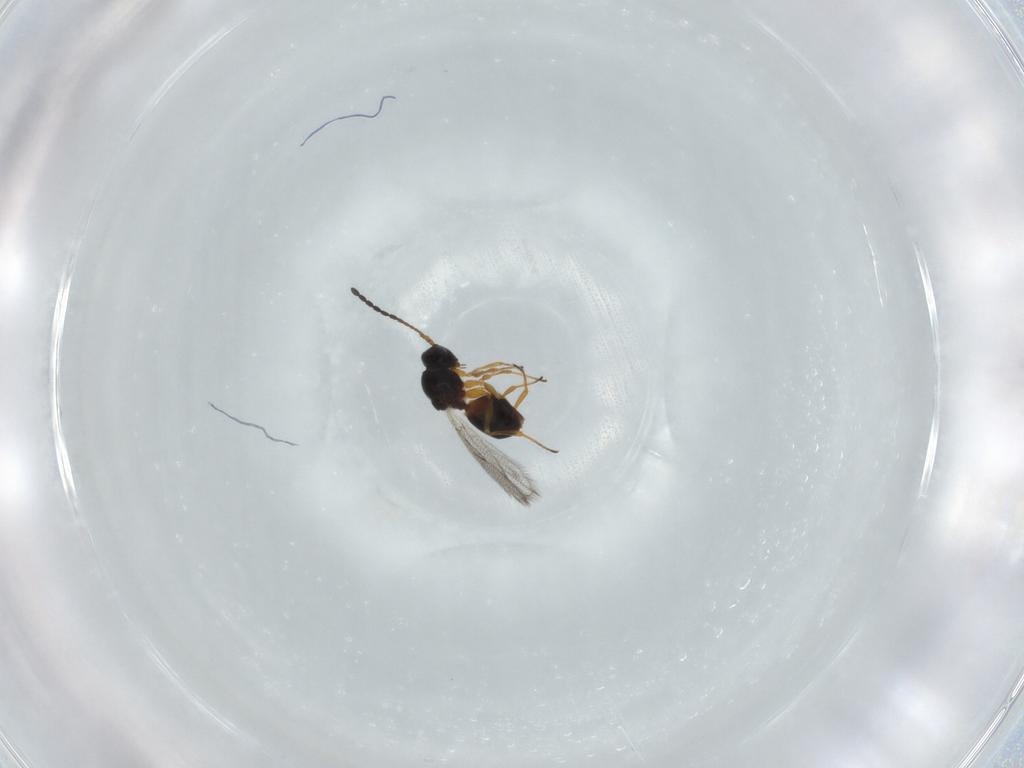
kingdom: Animalia
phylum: Arthropoda
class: Insecta
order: Hymenoptera
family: Figitidae
